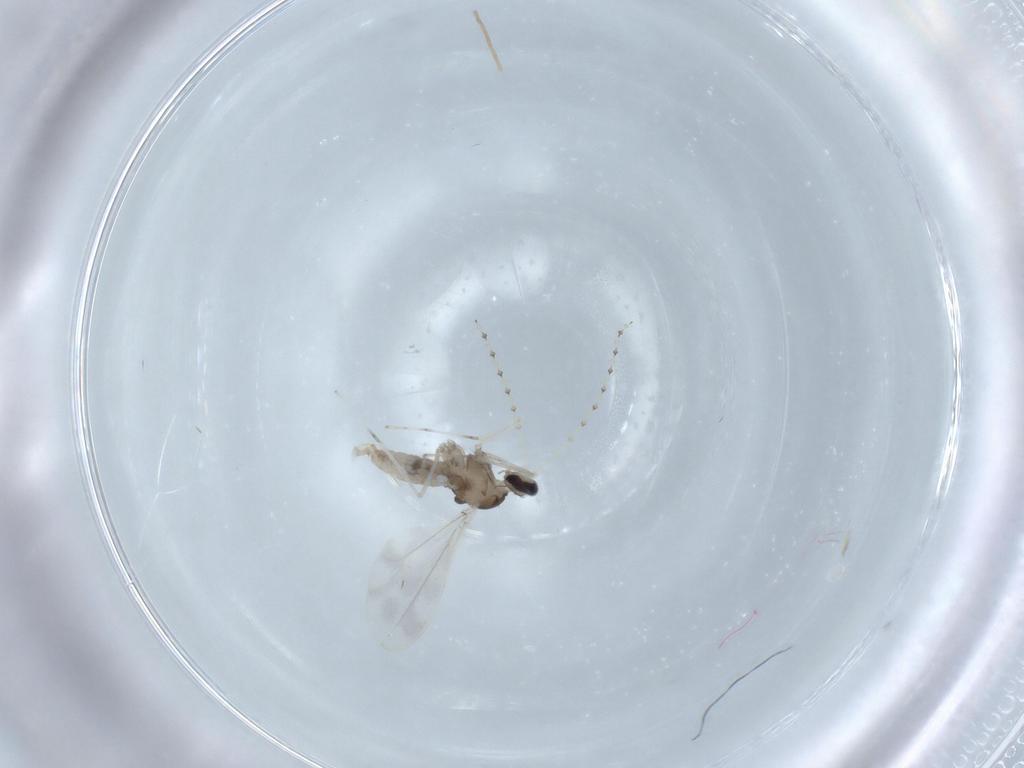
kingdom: Animalia
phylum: Arthropoda
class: Insecta
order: Diptera
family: Cecidomyiidae
